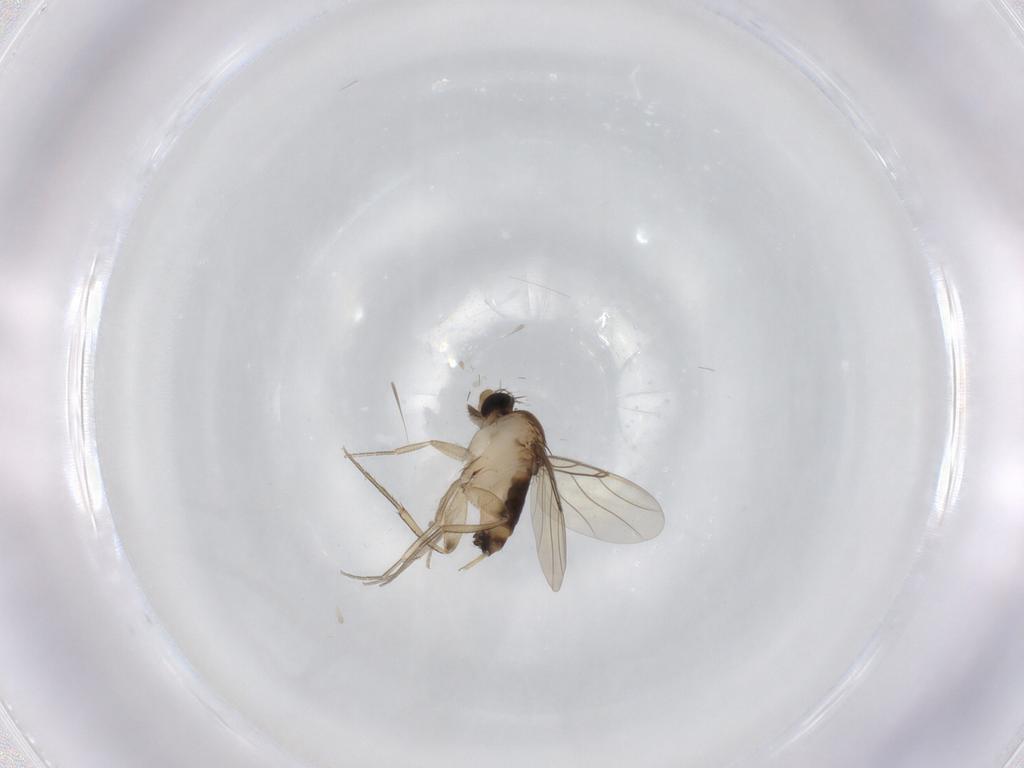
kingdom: Animalia
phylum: Arthropoda
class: Insecta
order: Diptera
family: Phoridae
